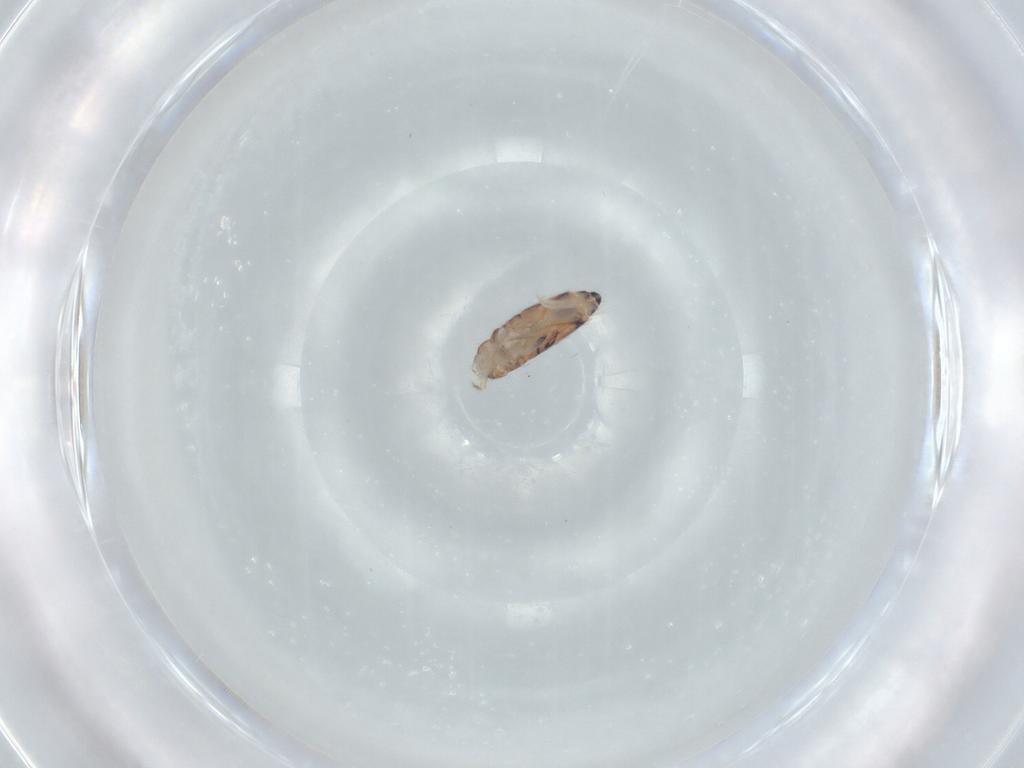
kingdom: Animalia
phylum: Arthropoda
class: Collembola
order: Entomobryomorpha
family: Entomobryidae
